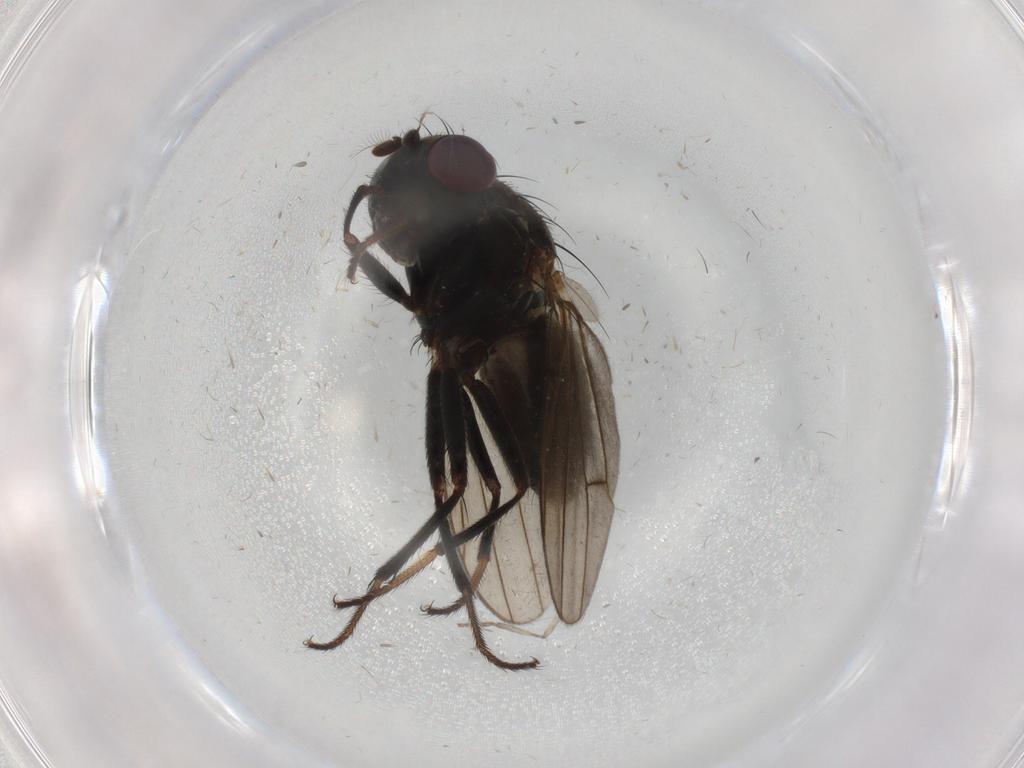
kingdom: Animalia
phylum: Arthropoda
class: Insecta
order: Diptera
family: Ephydridae
